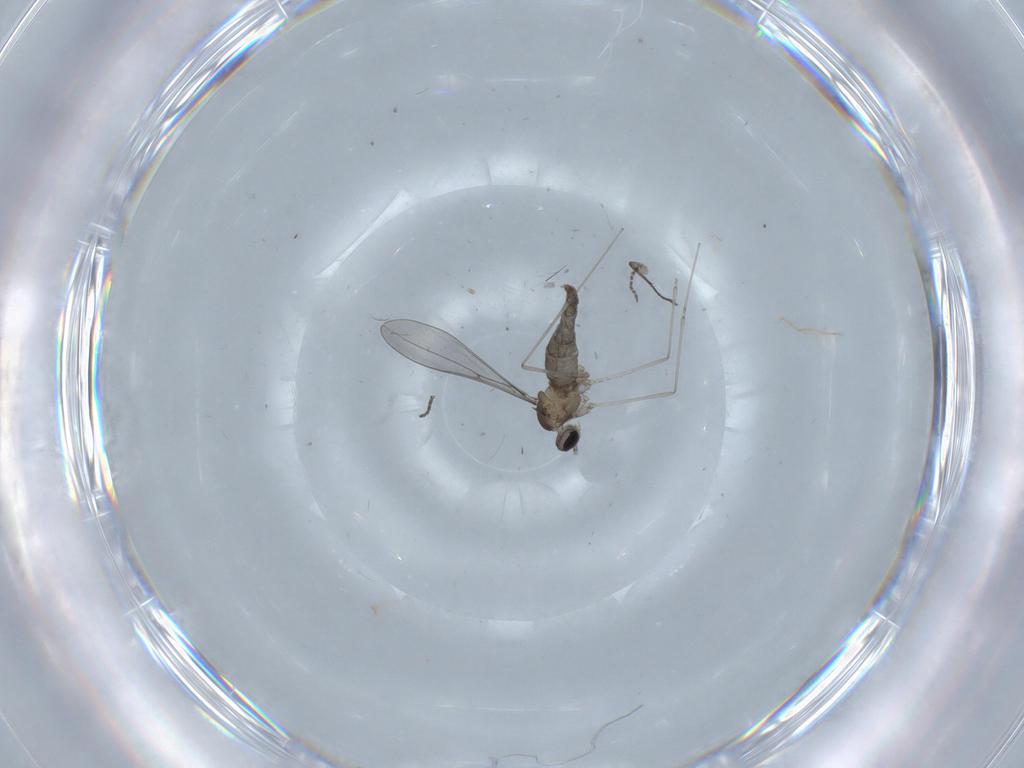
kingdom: Animalia
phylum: Arthropoda
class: Insecta
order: Diptera
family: Cecidomyiidae
